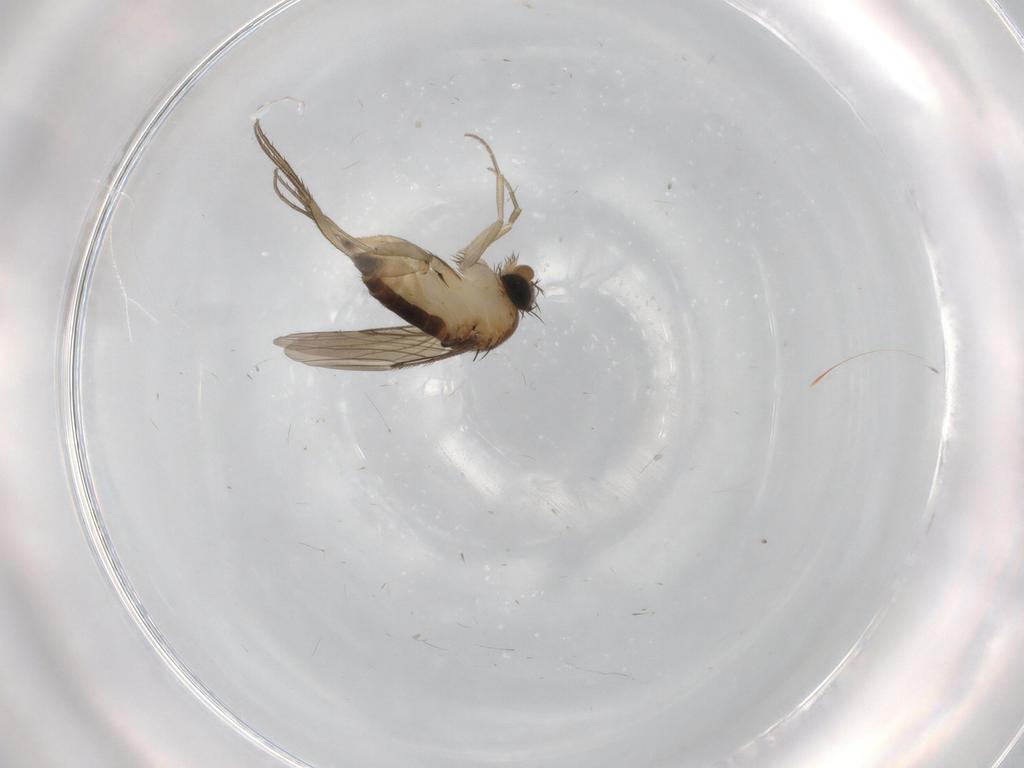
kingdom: Animalia
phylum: Arthropoda
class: Insecta
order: Diptera
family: Phoridae
